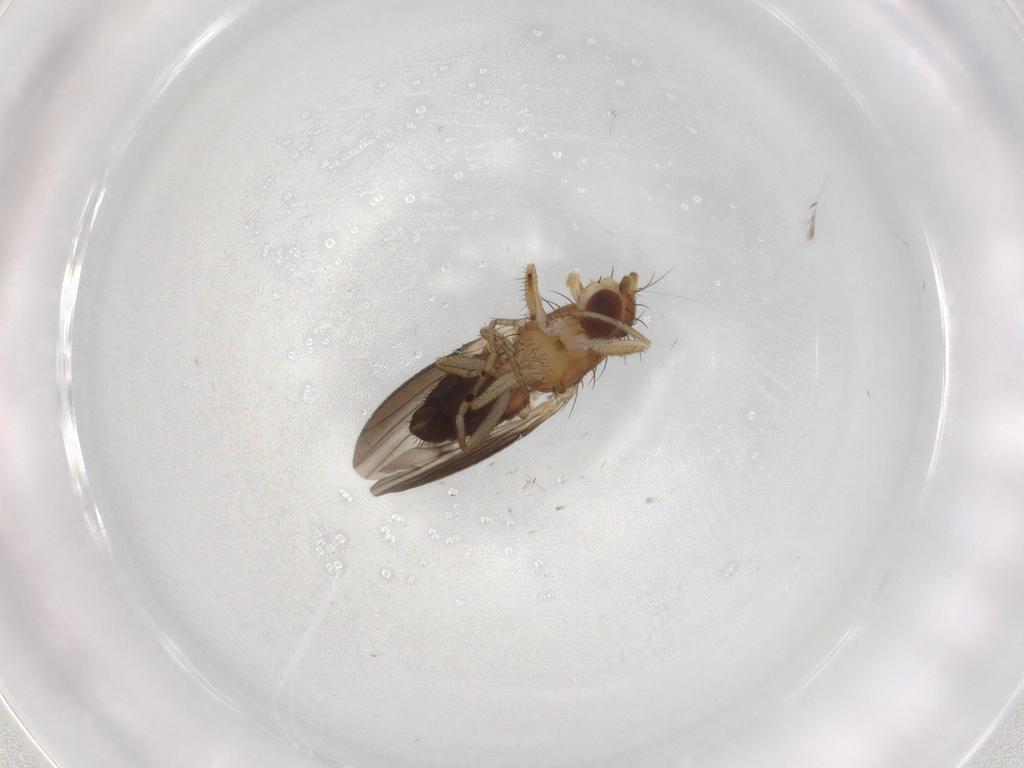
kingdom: Animalia
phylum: Arthropoda
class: Insecta
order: Diptera
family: Heleomyzidae
